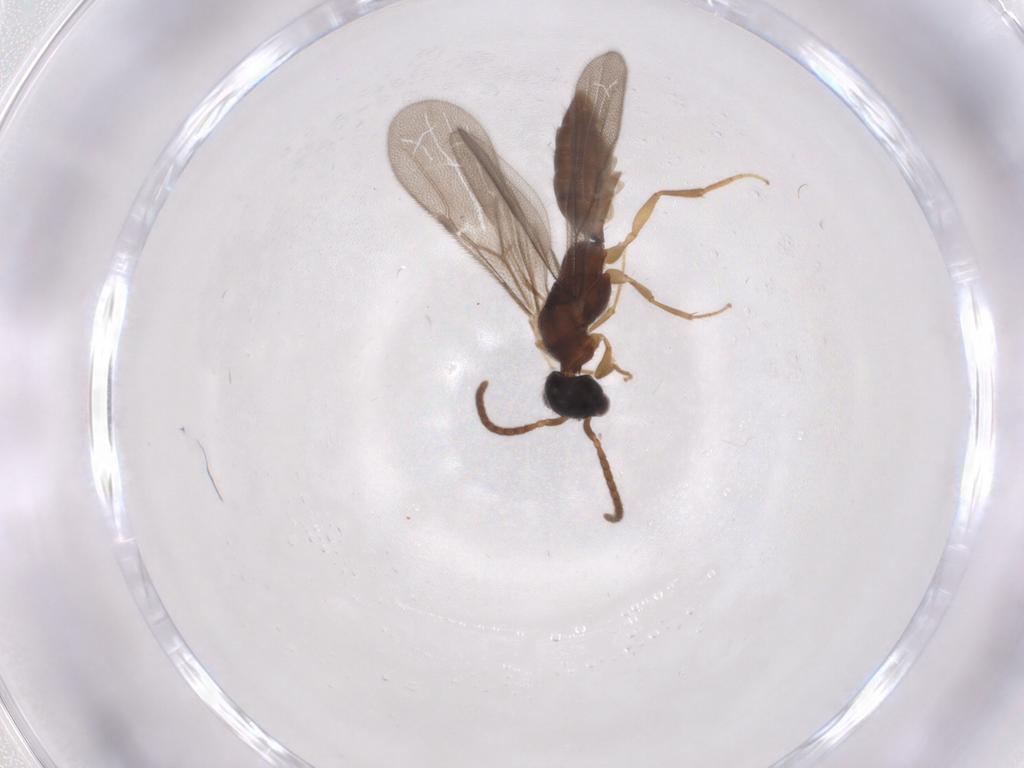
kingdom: Animalia
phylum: Arthropoda
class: Insecta
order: Hymenoptera
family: Bethylidae
